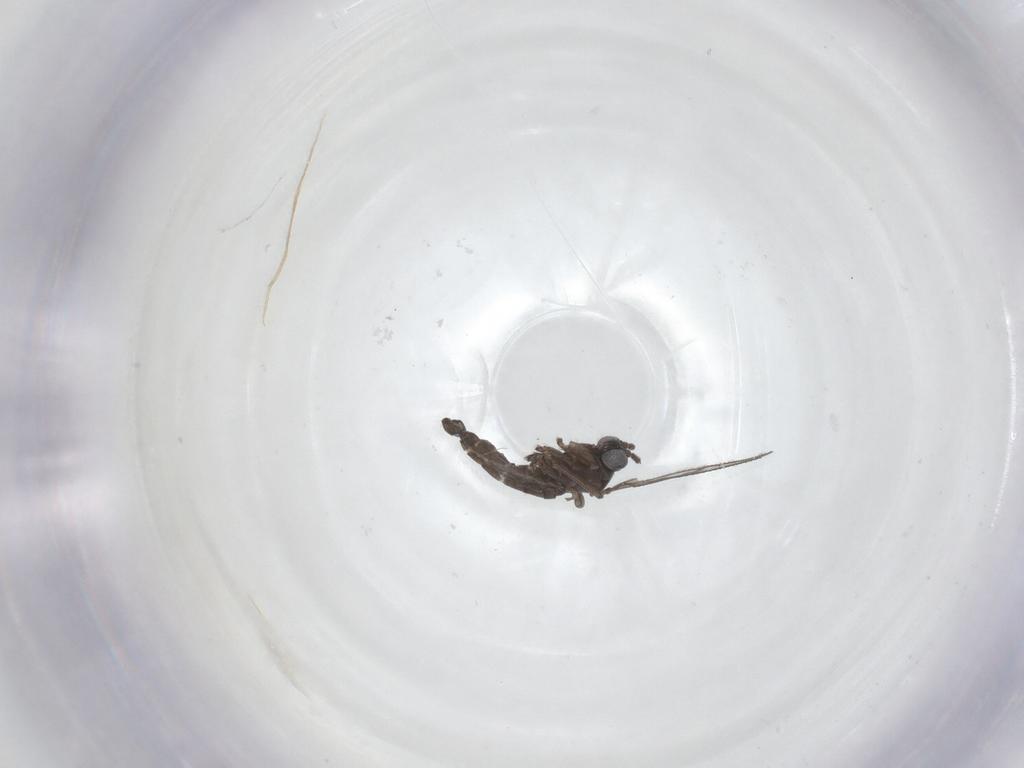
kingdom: Animalia
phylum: Arthropoda
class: Insecta
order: Diptera
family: Sciaridae
